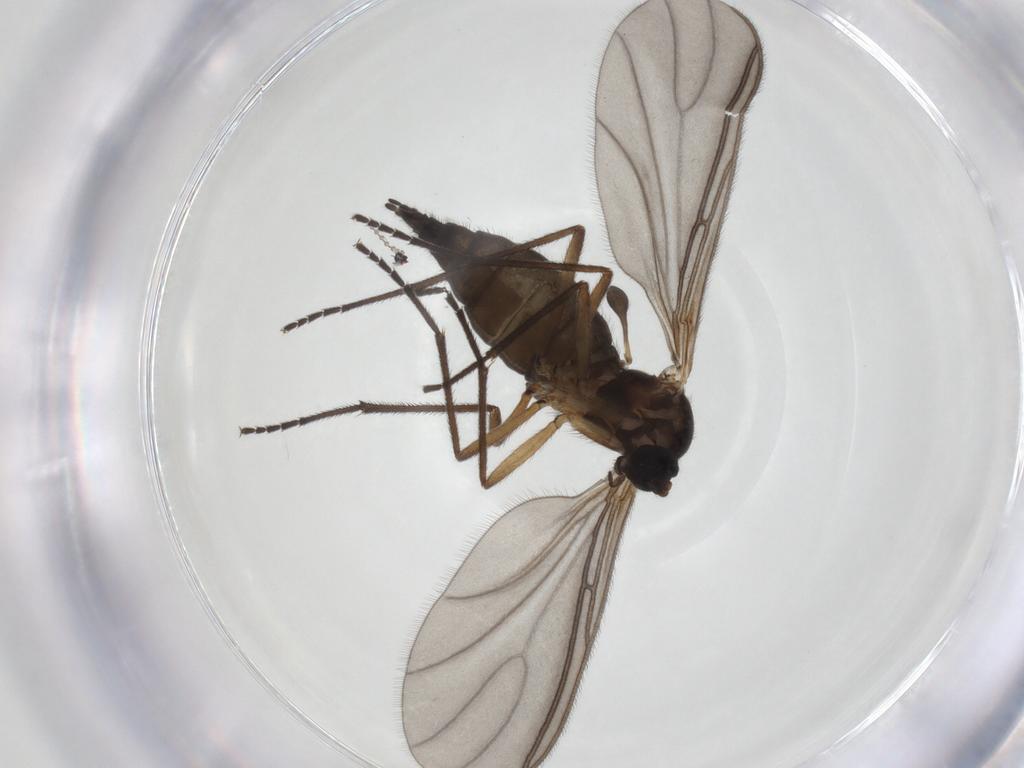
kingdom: Animalia
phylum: Arthropoda
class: Insecta
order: Diptera
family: Sciaridae
